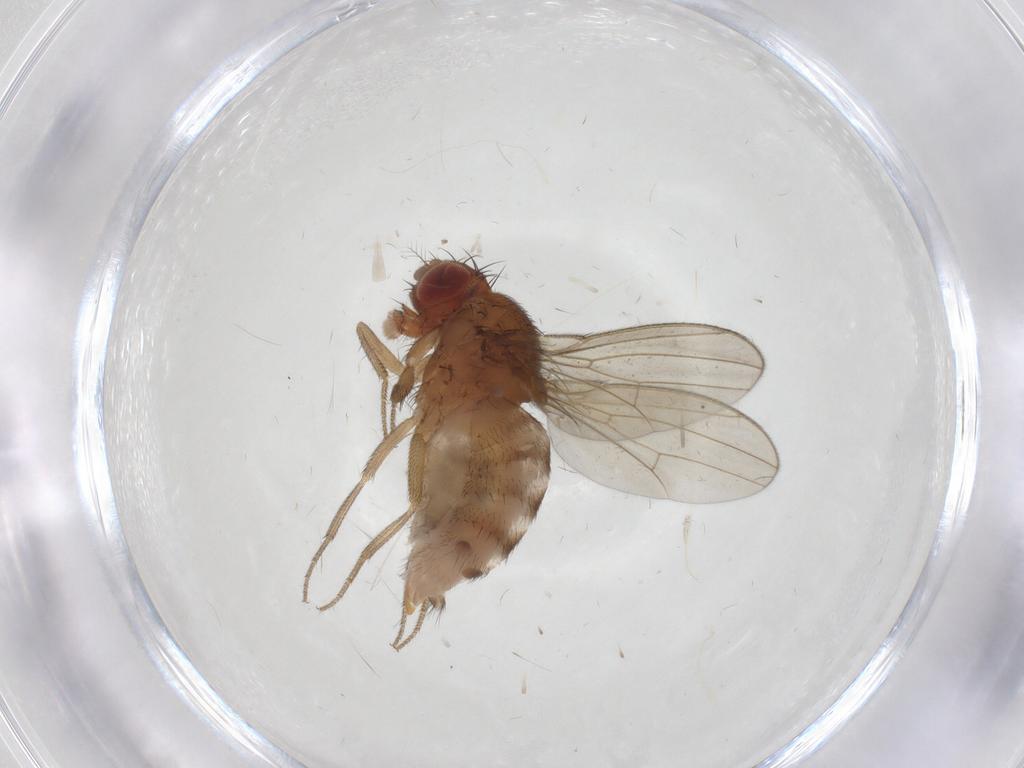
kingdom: Animalia
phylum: Arthropoda
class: Insecta
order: Diptera
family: Drosophilidae
